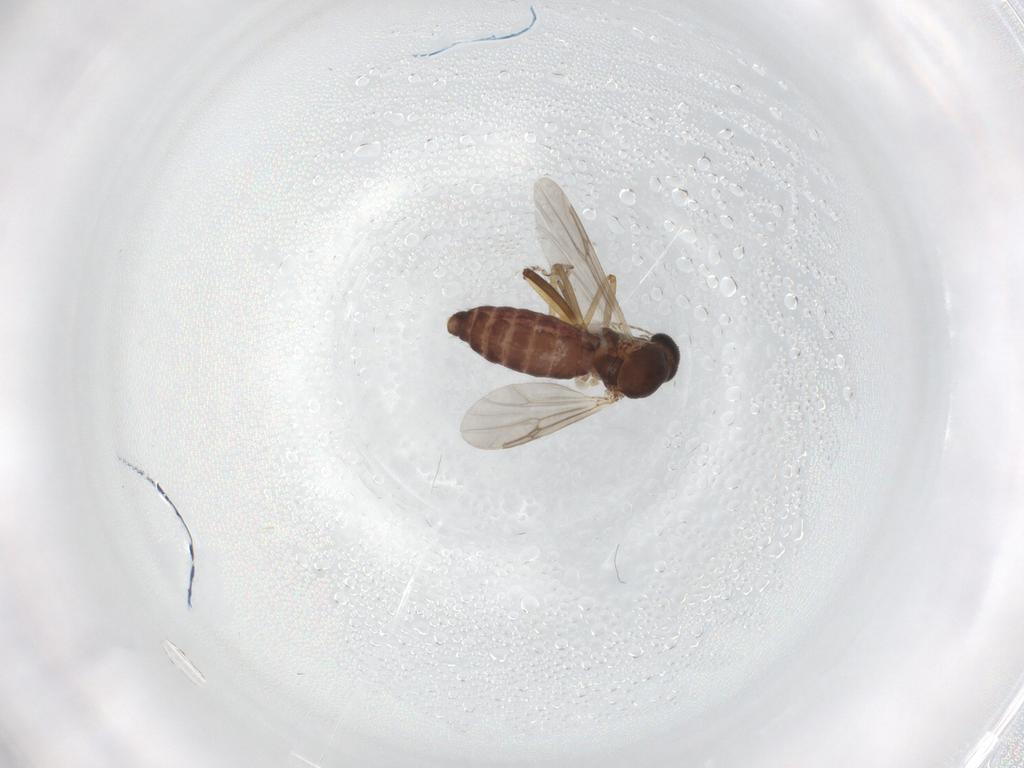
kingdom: Animalia
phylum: Arthropoda
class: Insecta
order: Diptera
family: Ceratopogonidae
